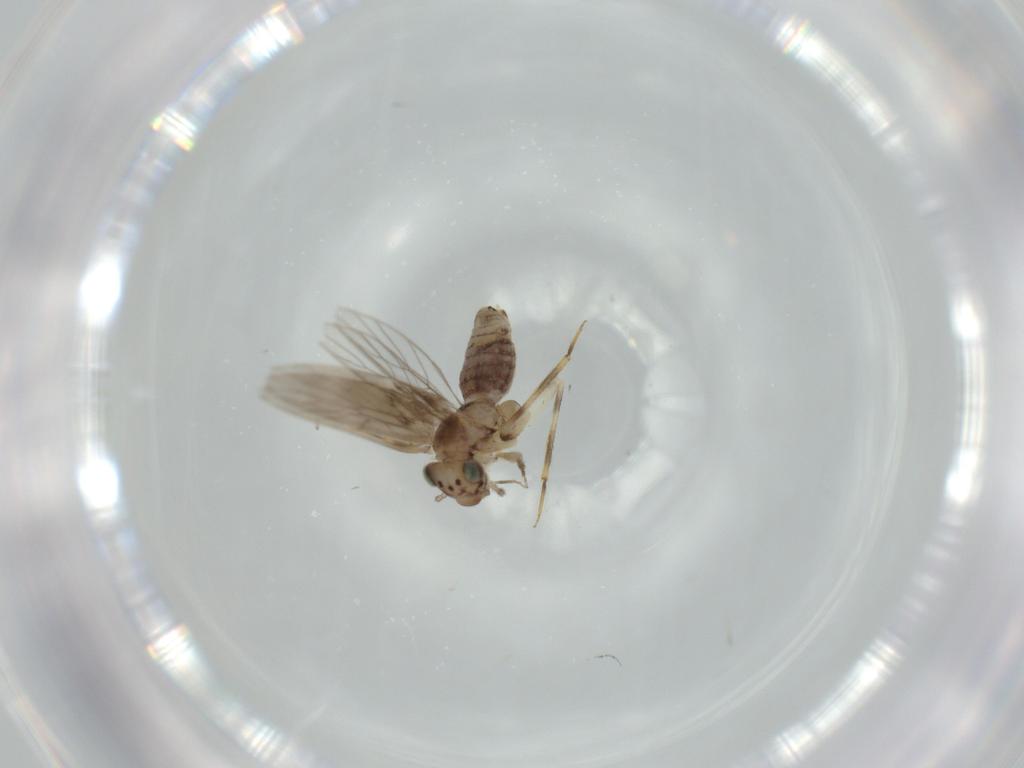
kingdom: Animalia
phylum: Arthropoda
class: Insecta
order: Psocodea
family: Lepidopsocidae
